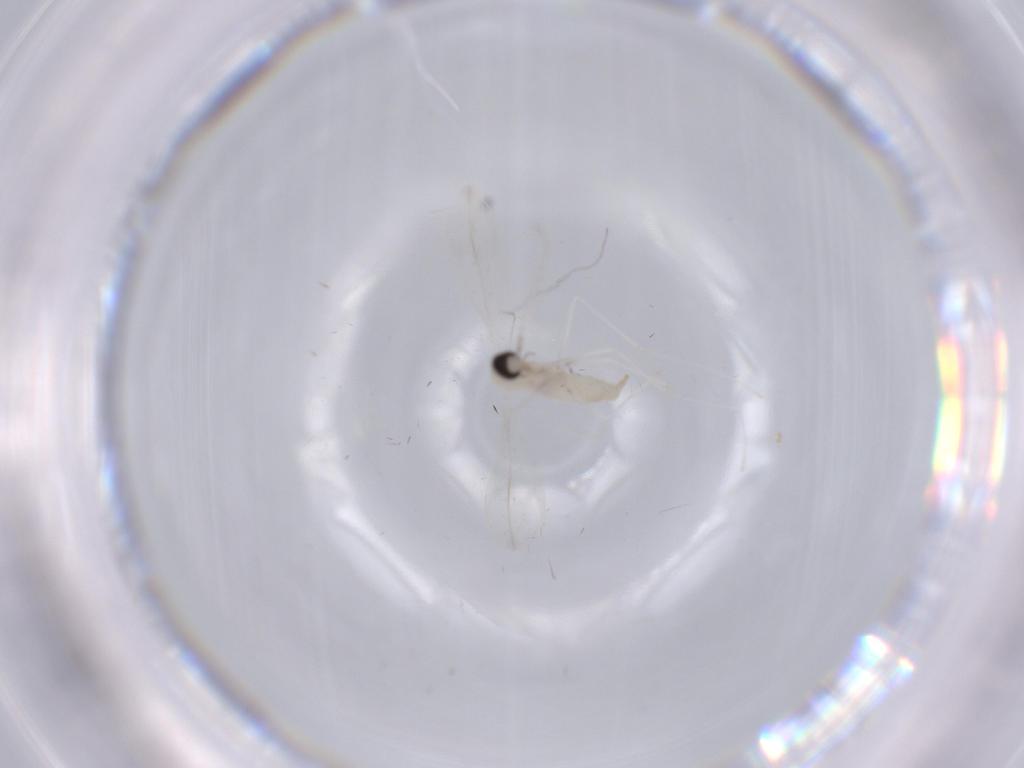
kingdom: Animalia
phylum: Arthropoda
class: Insecta
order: Diptera
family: Cecidomyiidae
